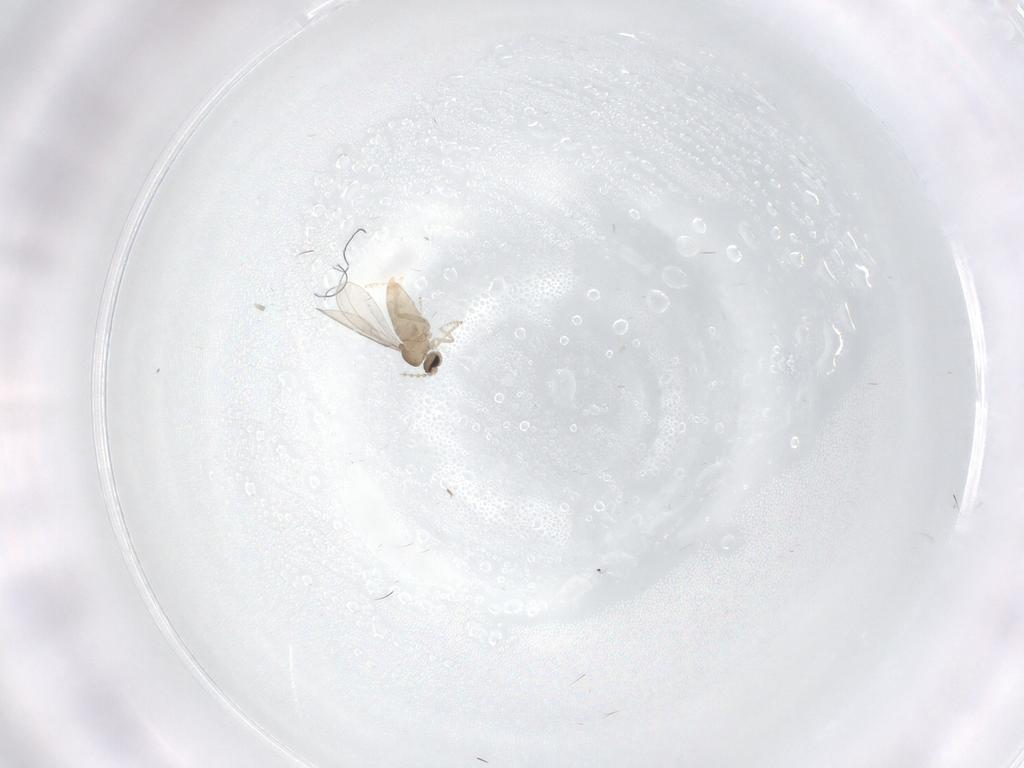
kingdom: Animalia
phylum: Arthropoda
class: Insecta
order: Diptera
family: Cecidomyiidae
